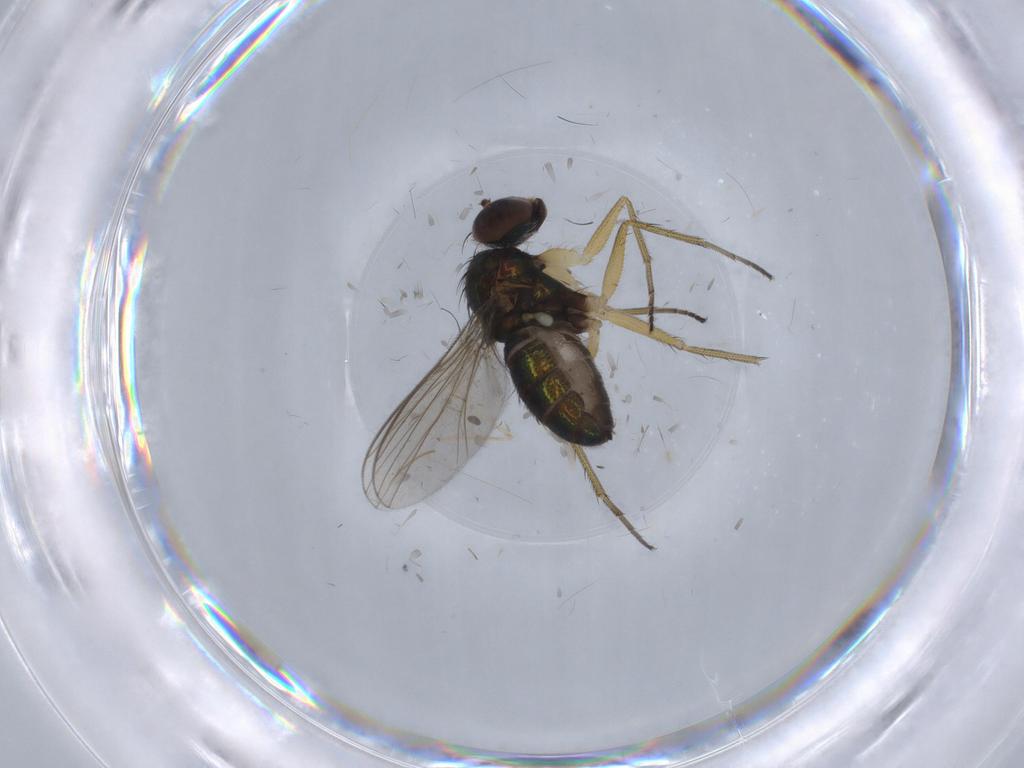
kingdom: Animalia
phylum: Arthropoda
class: Insecta
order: Diptera
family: Psychodidae
